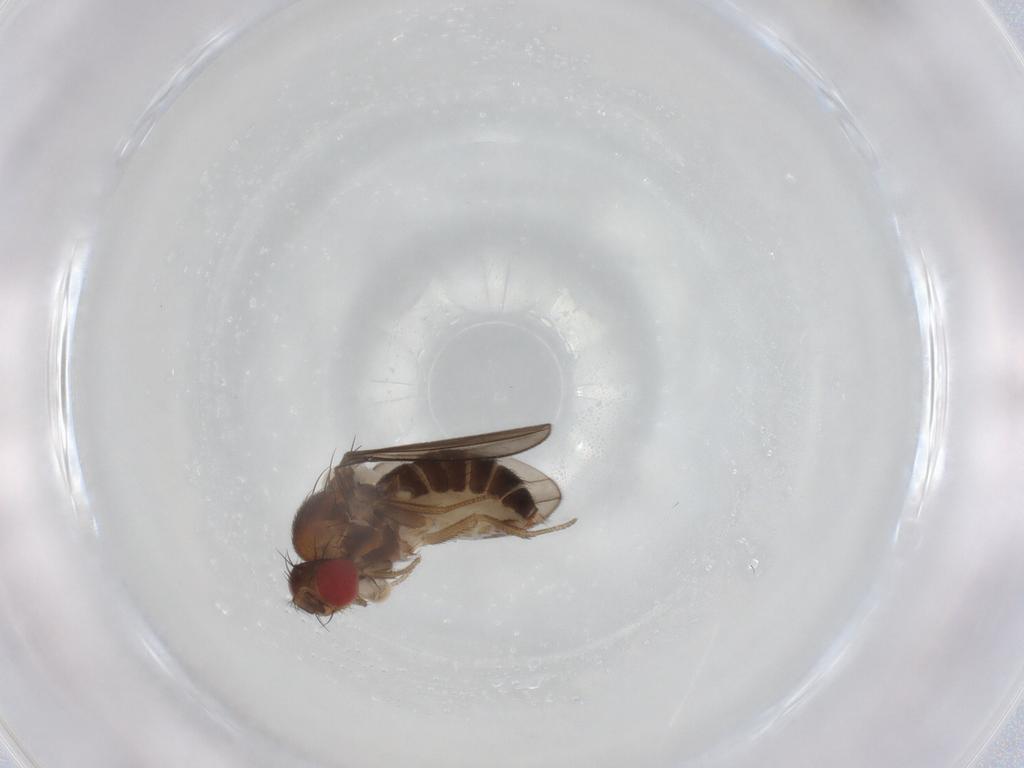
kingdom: Animalia
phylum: Arthropoda
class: Insecta
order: Diptera
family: Drosophilidae
